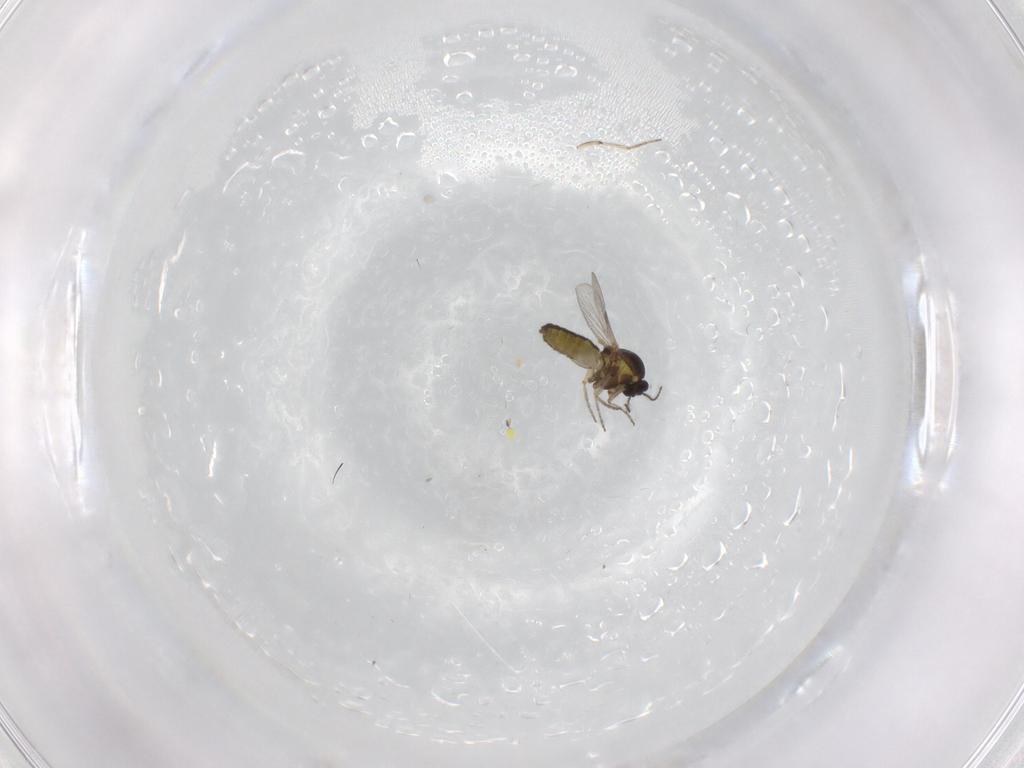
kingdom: Animalia
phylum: Arthropoda
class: Insecta
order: Diptera
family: Ceratopogonidae
